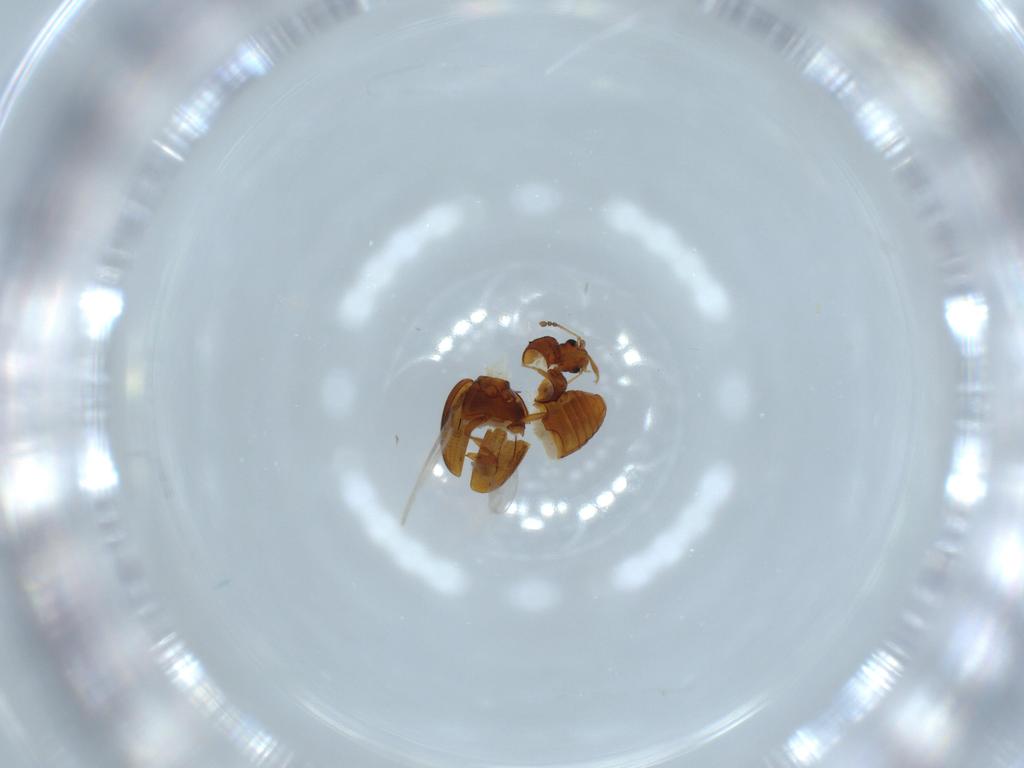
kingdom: Animalia
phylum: Arthropoda
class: Insecta
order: Coleoptera
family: Latridiidae
